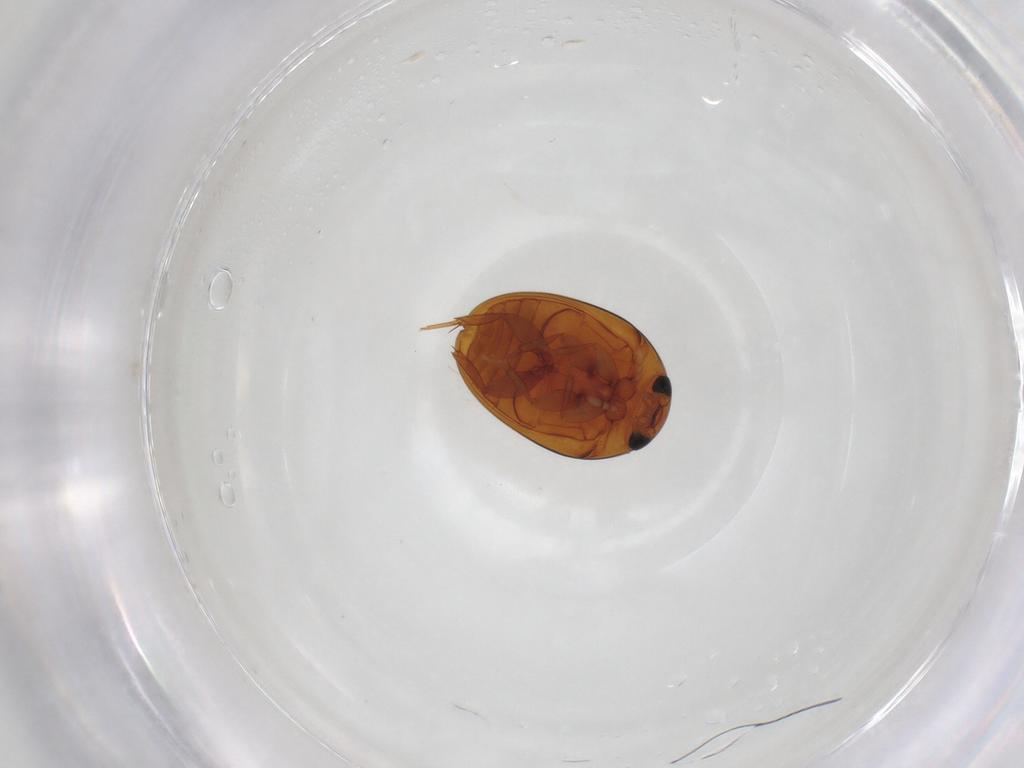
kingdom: Animalia
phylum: Arthropoda
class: Insecta
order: Coleoptera
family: Phalacridae
